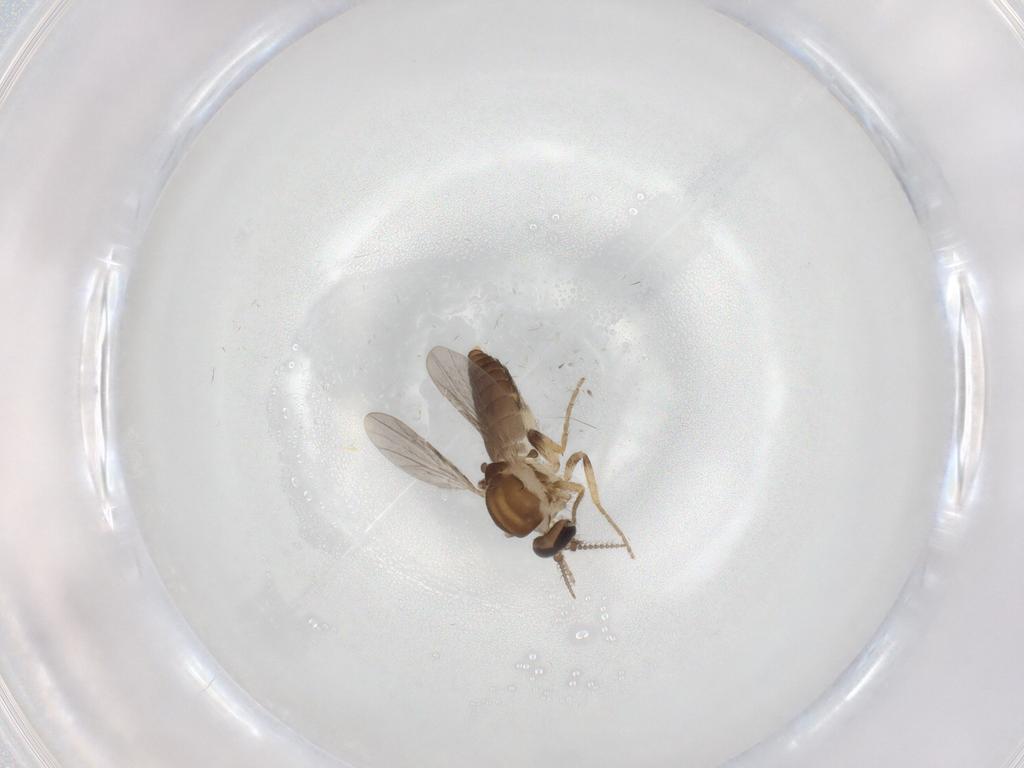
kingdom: Animalia
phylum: Arthropoda
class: Insecta
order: Diptera
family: Ceratopogonidae
